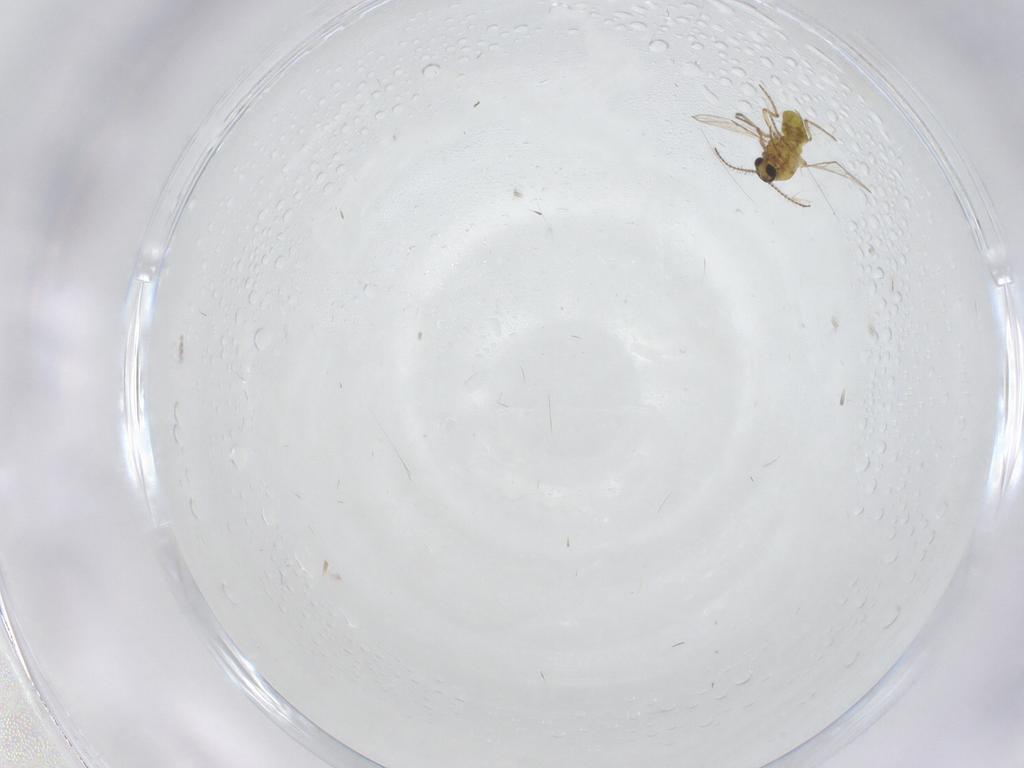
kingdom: Animalia
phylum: Arthropoda
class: Insecta
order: Diptera
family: Ceratopogonidae
